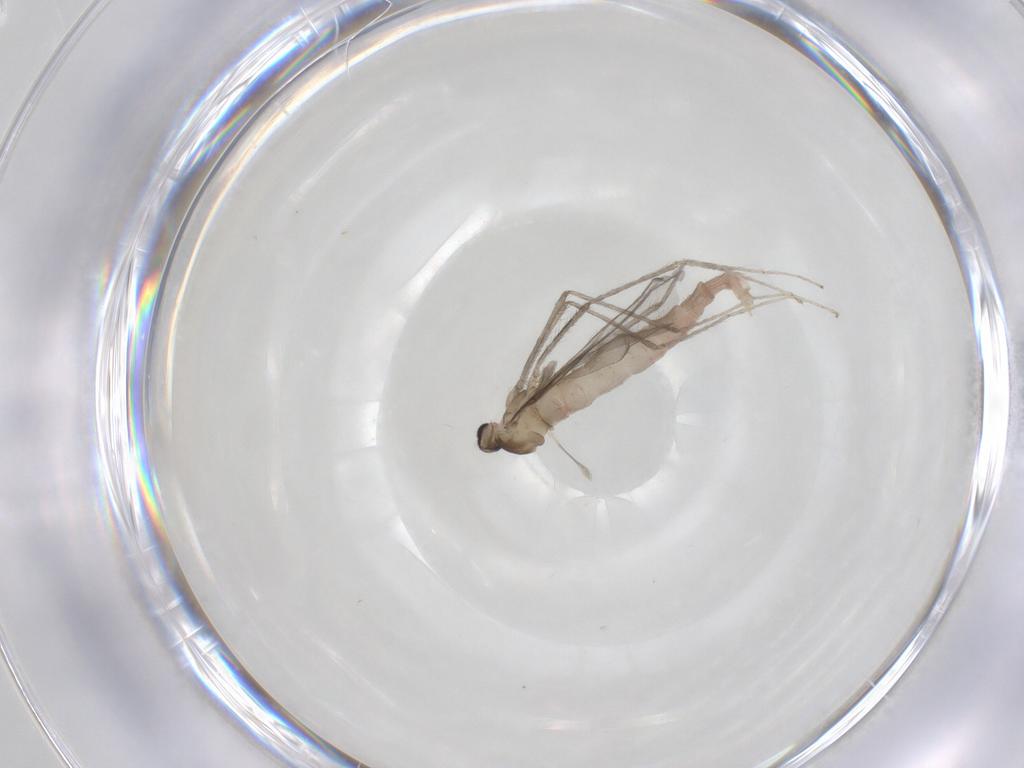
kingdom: Animalia
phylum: Arthropoda
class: Insecta
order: Diptera
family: Cecidomyiidae
